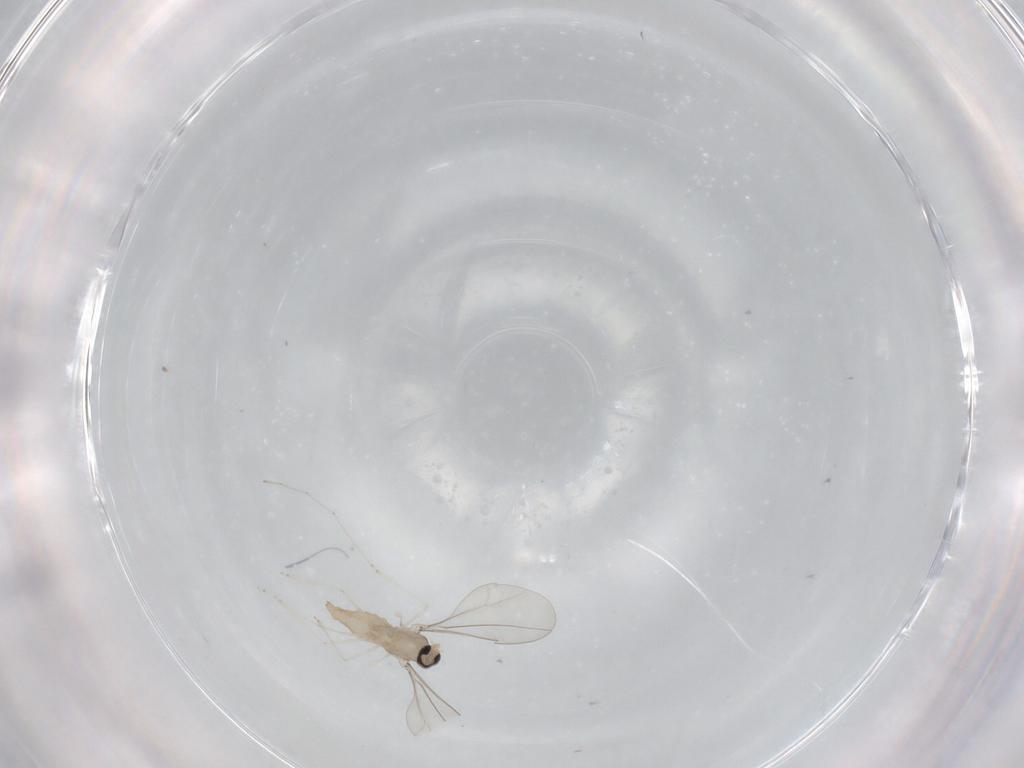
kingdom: Animalia
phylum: Arthropoda
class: Insecta
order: Diptera
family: Cecidomyiidae
